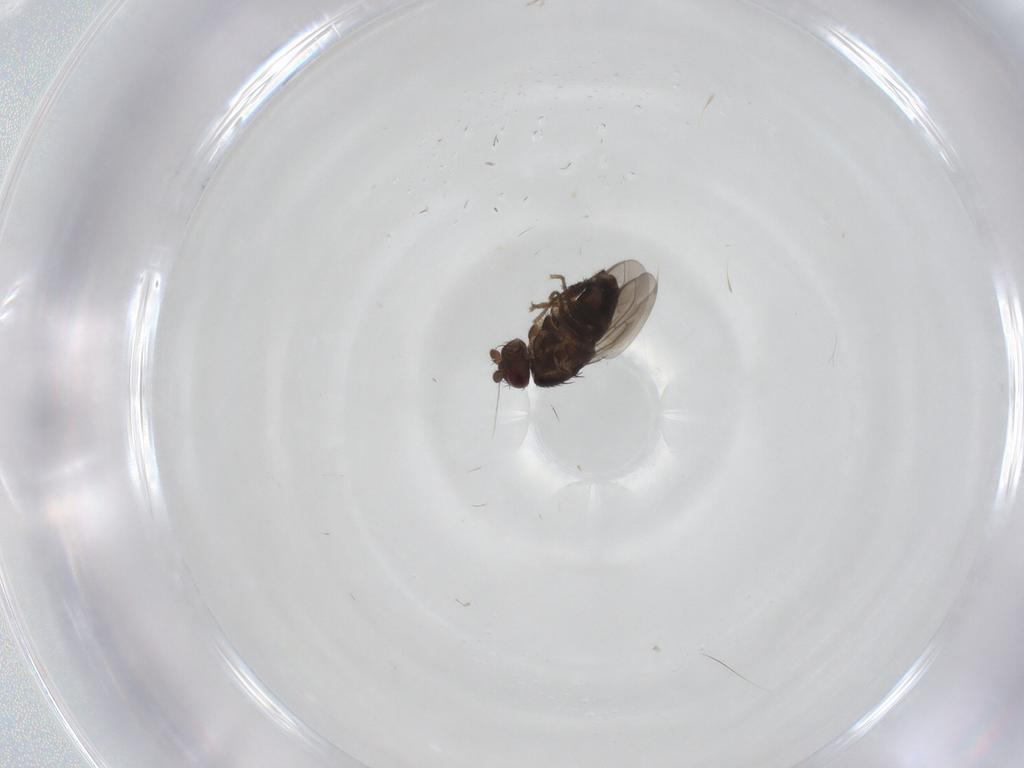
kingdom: Animalia
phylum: Arthropoda
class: Insecta
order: Diptera
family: Sphaeroceridae
